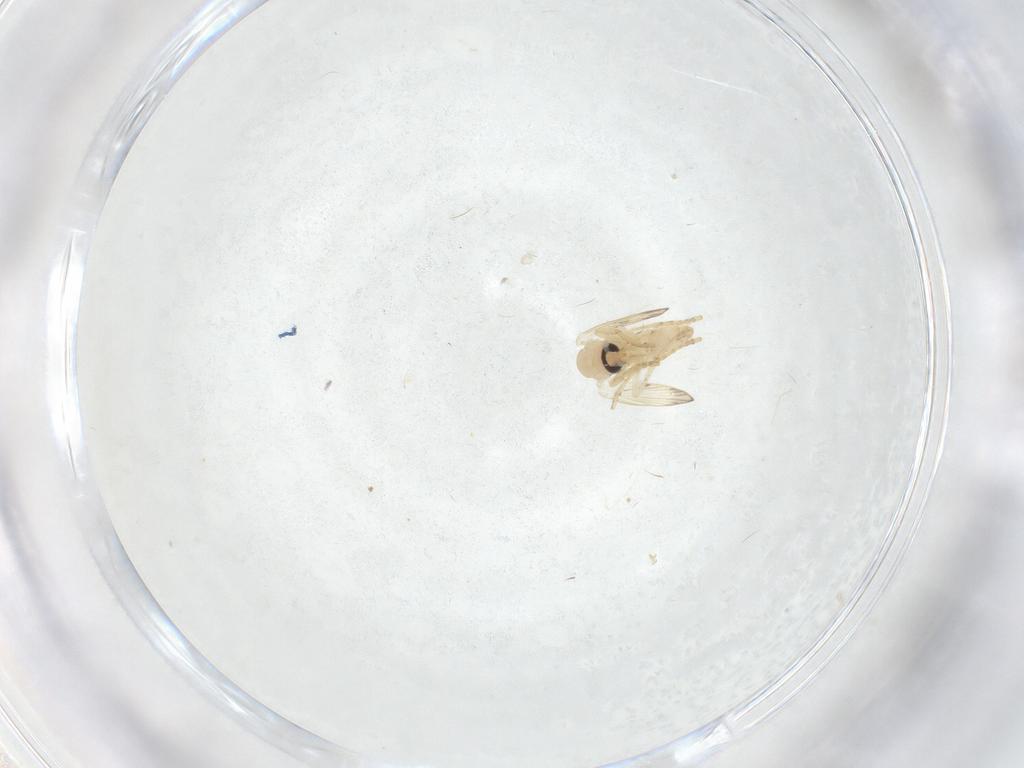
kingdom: Animalia
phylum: Arthropoda
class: Insecta
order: Diptera
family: Psychodidae
